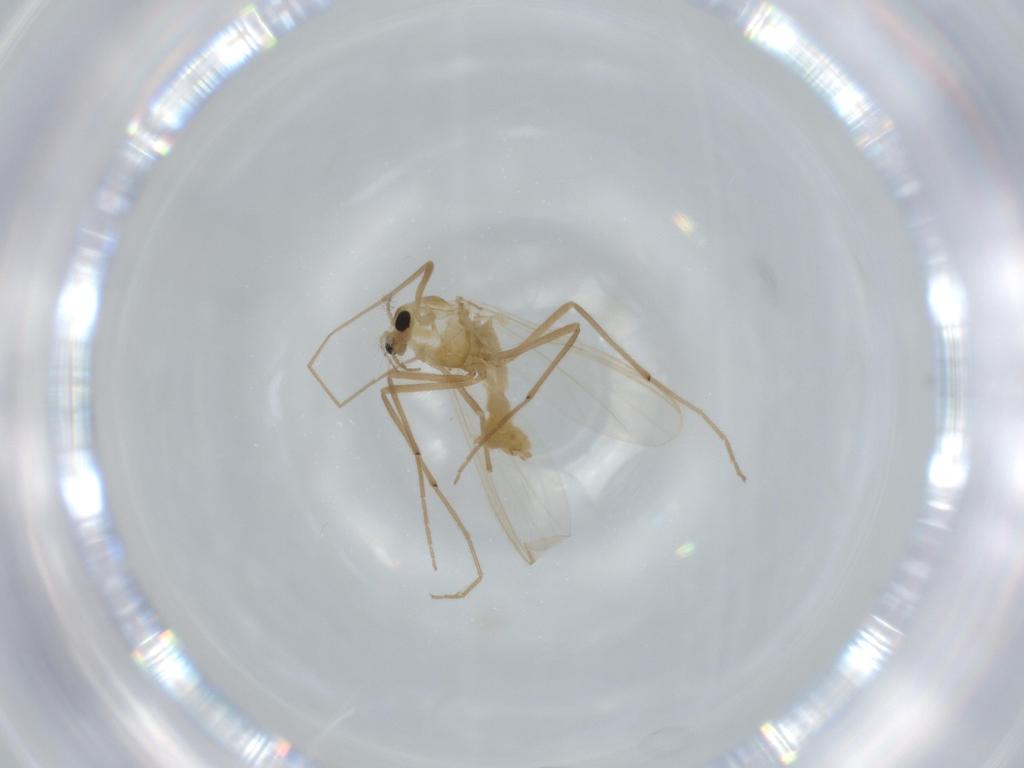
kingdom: Animalia
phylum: Arthropoda
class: Insecta
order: Diptera
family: Chironomidae
